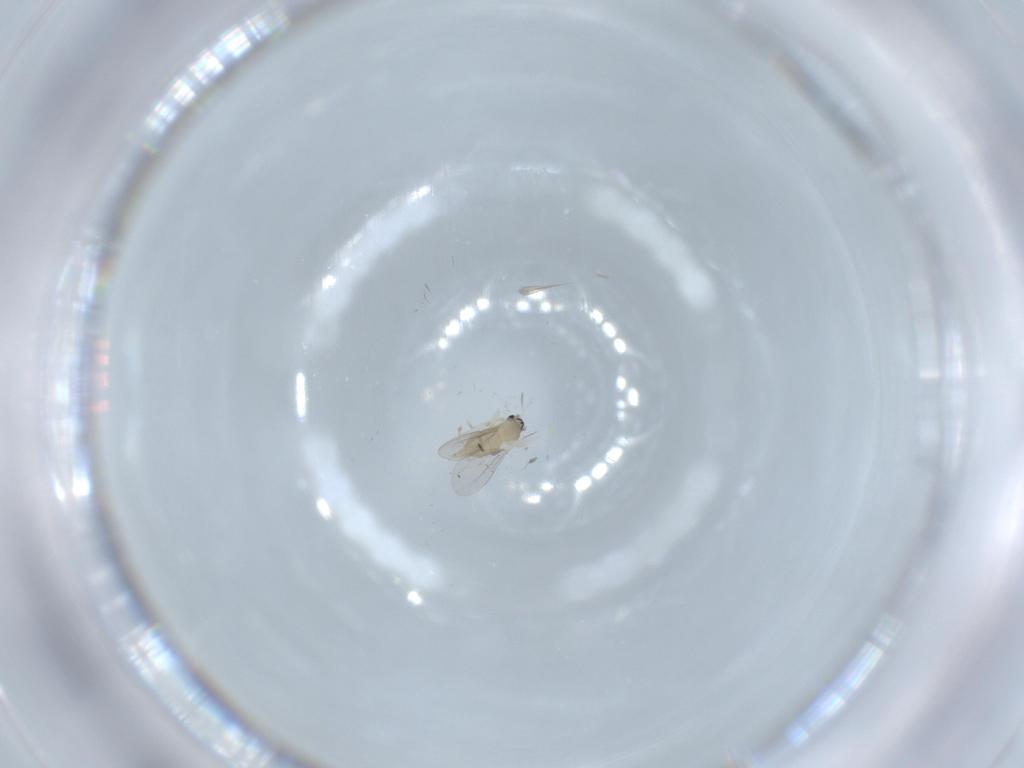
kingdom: Animalia
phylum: Arthropoda
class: Insecta
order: Diptera
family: Cecidomyiidae
